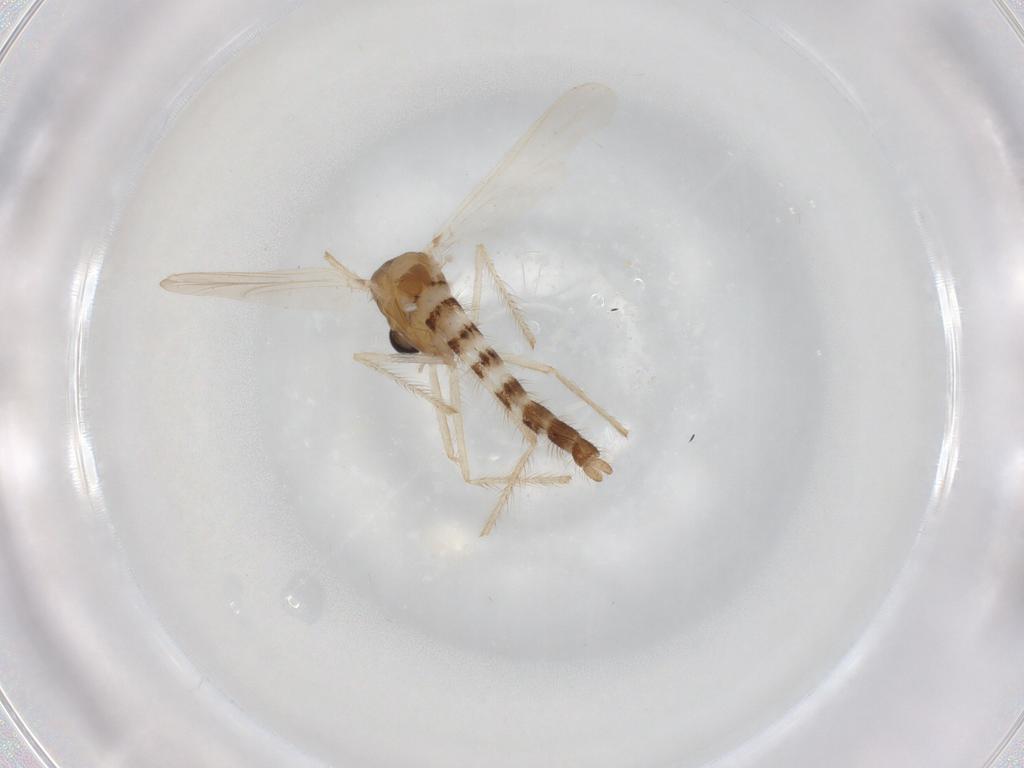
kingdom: Animalia
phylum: Arthropoda
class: Insecta
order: Diptera
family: Chironomidae
